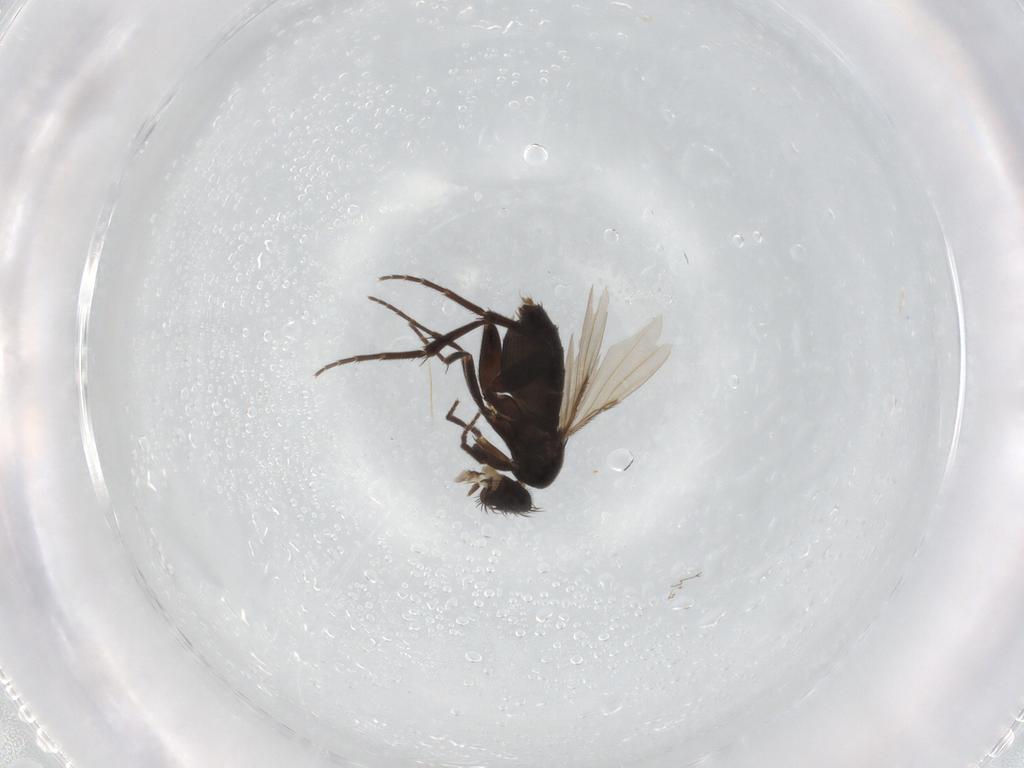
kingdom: Animalia
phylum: Arthropoda
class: Insecta
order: Diptera
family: Phoridae
